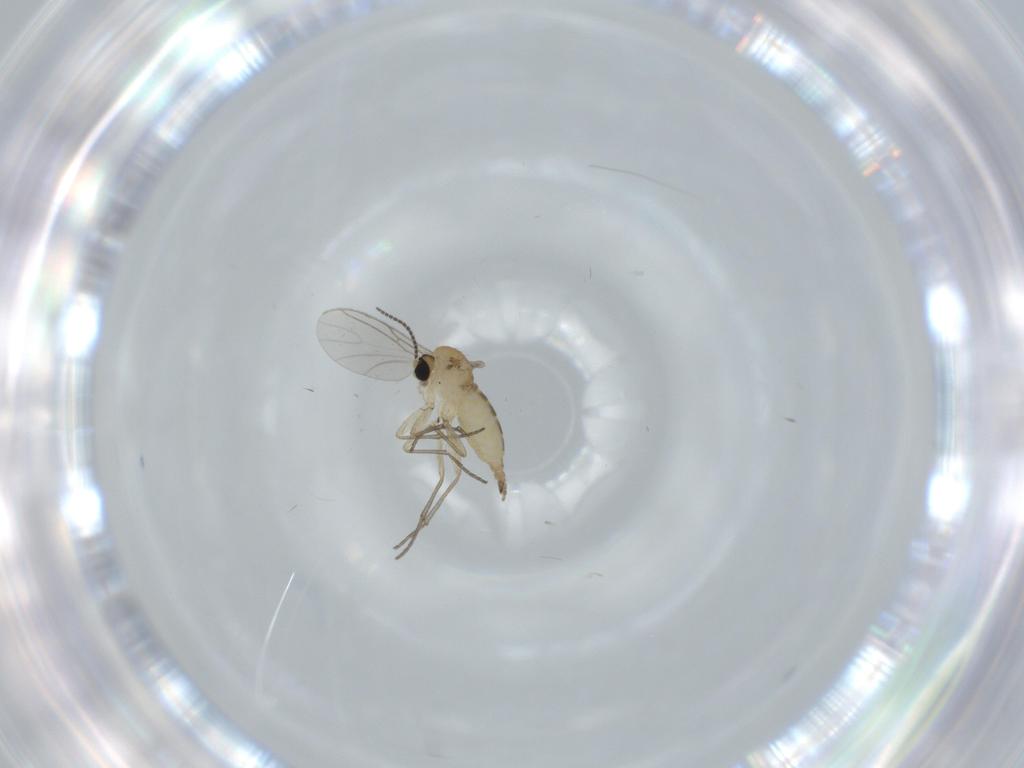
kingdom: Animalia
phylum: Arthropoda
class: Insecta
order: Diptera
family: Sciaridae
